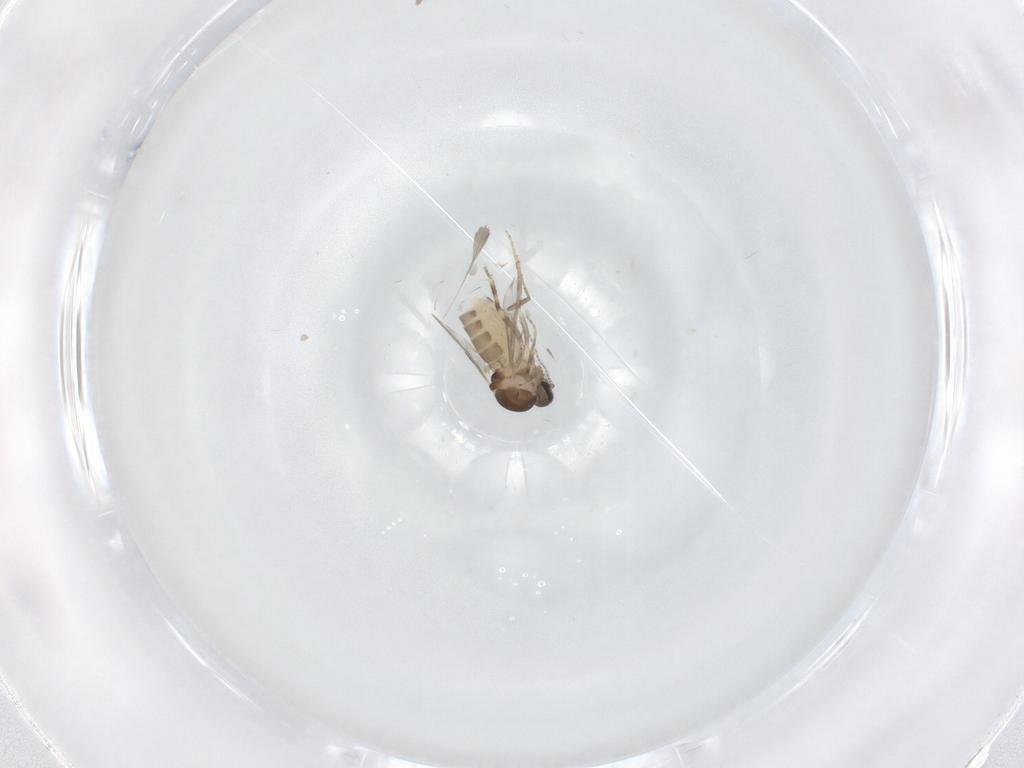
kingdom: Animalia
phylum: Arthropoda
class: Insecta
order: Diptera
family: Ceratopogonidae
